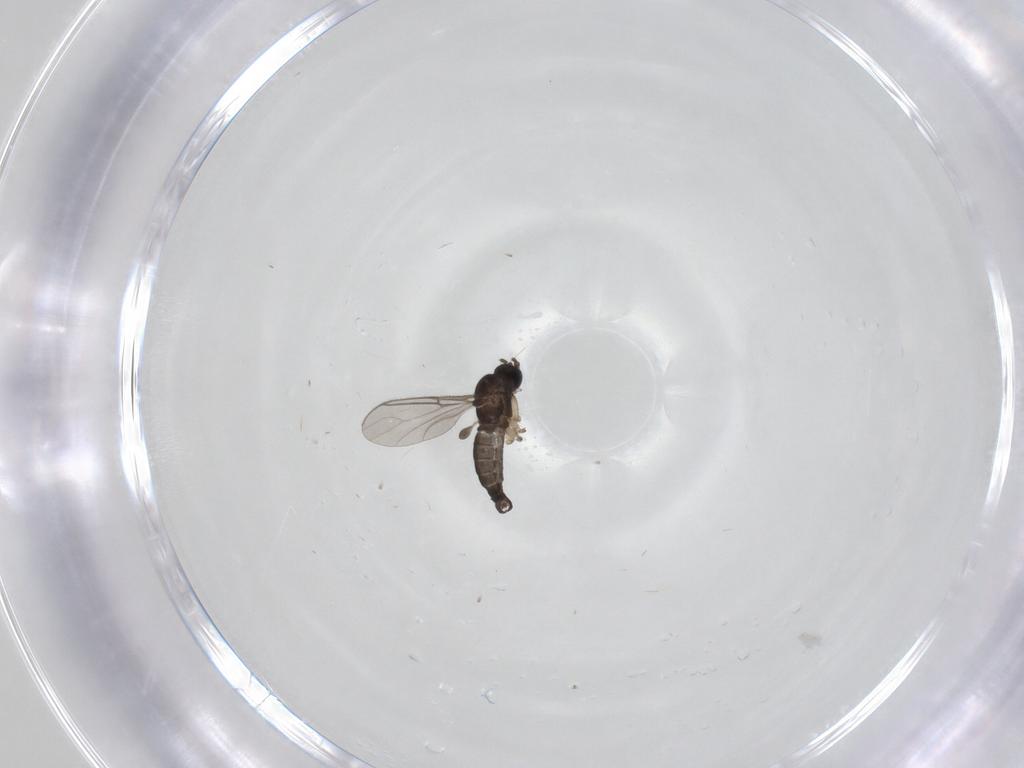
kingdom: Animalia
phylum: Arthropoda
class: Insecta
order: Diptera
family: Sciaridae
